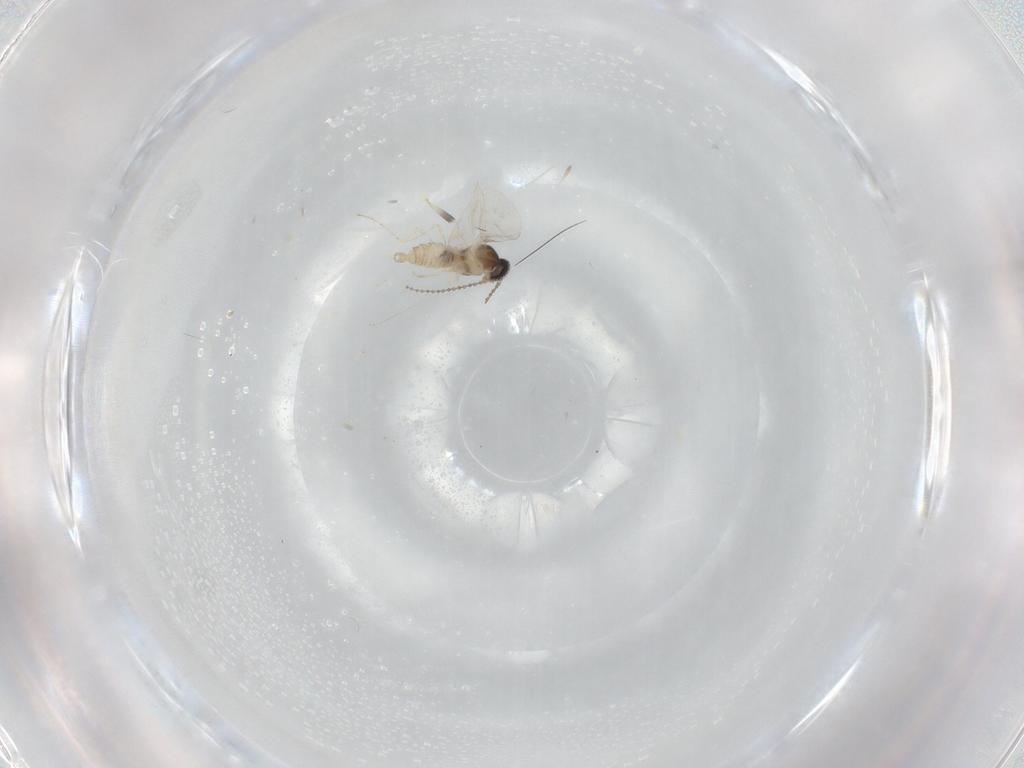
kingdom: Animalia
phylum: Arthropoda
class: Insecta
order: Diptera
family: Cecidomyiidae
